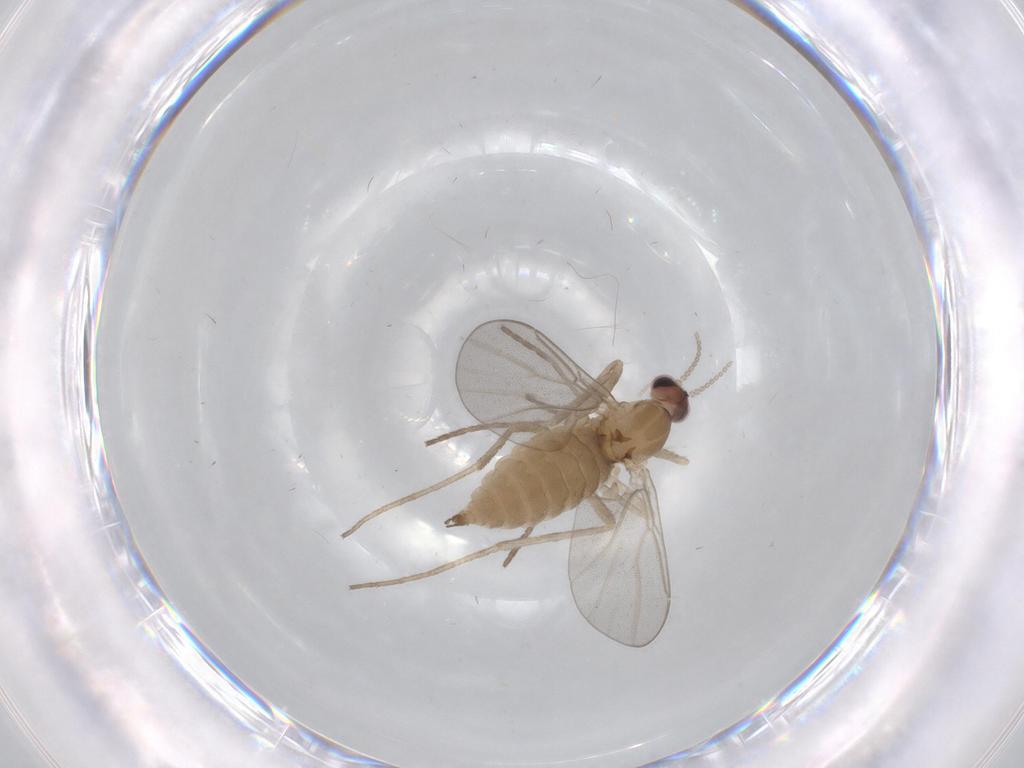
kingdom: Animalia
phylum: Arthropoda
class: Insecta
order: Diptera
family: Cecidomyiidae
